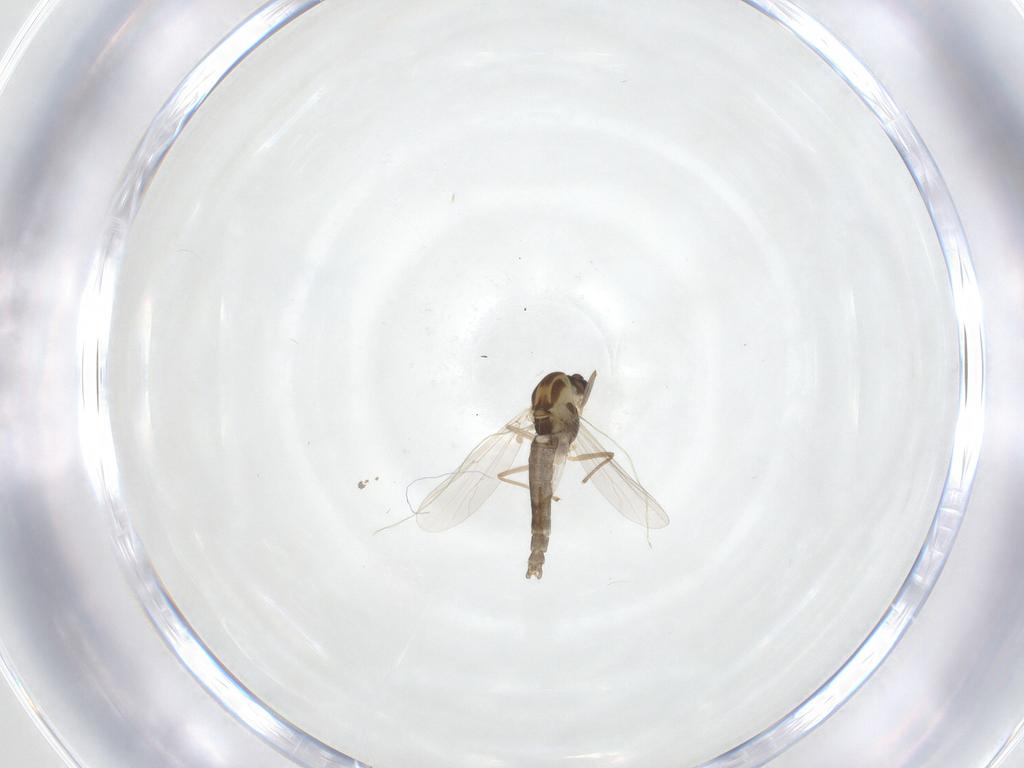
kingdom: Animalia
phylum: Arthropoda
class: Insecta
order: Diptera
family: Chironomidae
